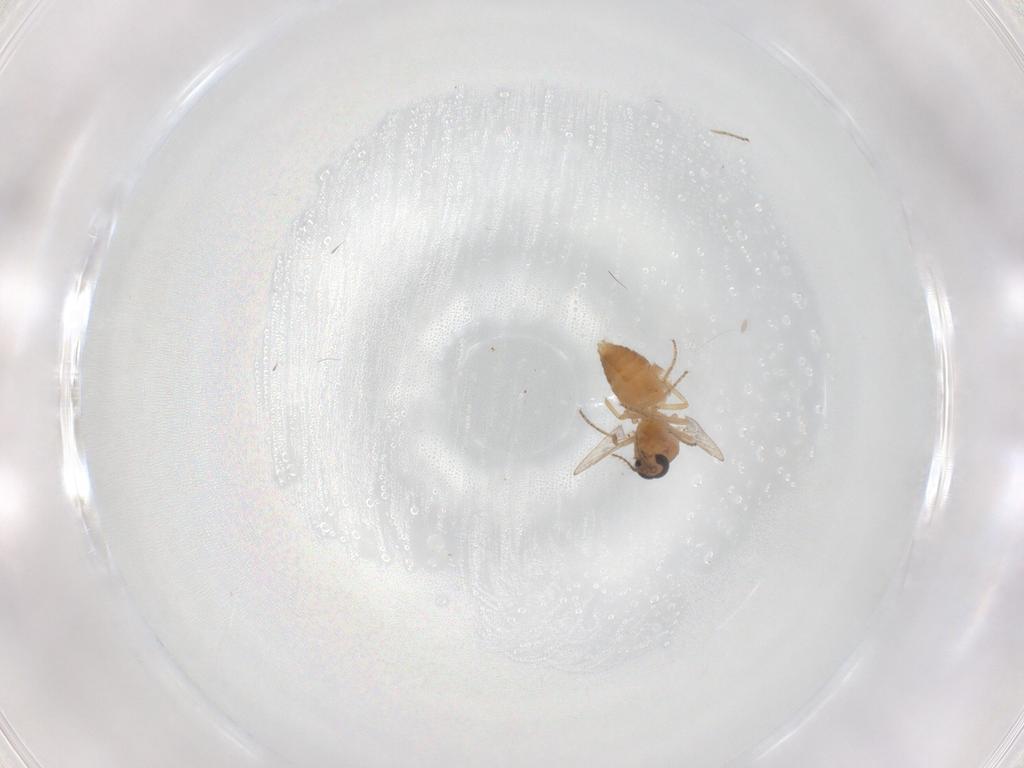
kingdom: Animalia
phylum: Arthropoda
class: Insecta
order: Diptera
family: Ceratopogonidae
